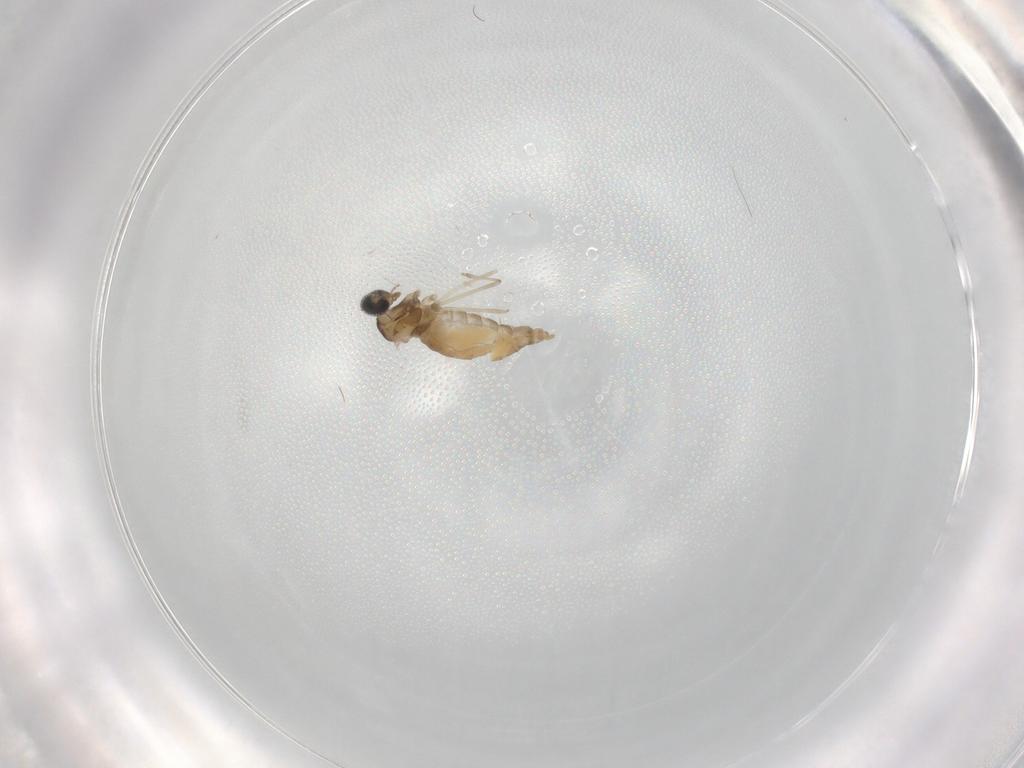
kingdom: Animalia
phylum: Arthropoda
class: Insecta
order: Diptera
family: Cecidomyiidae
